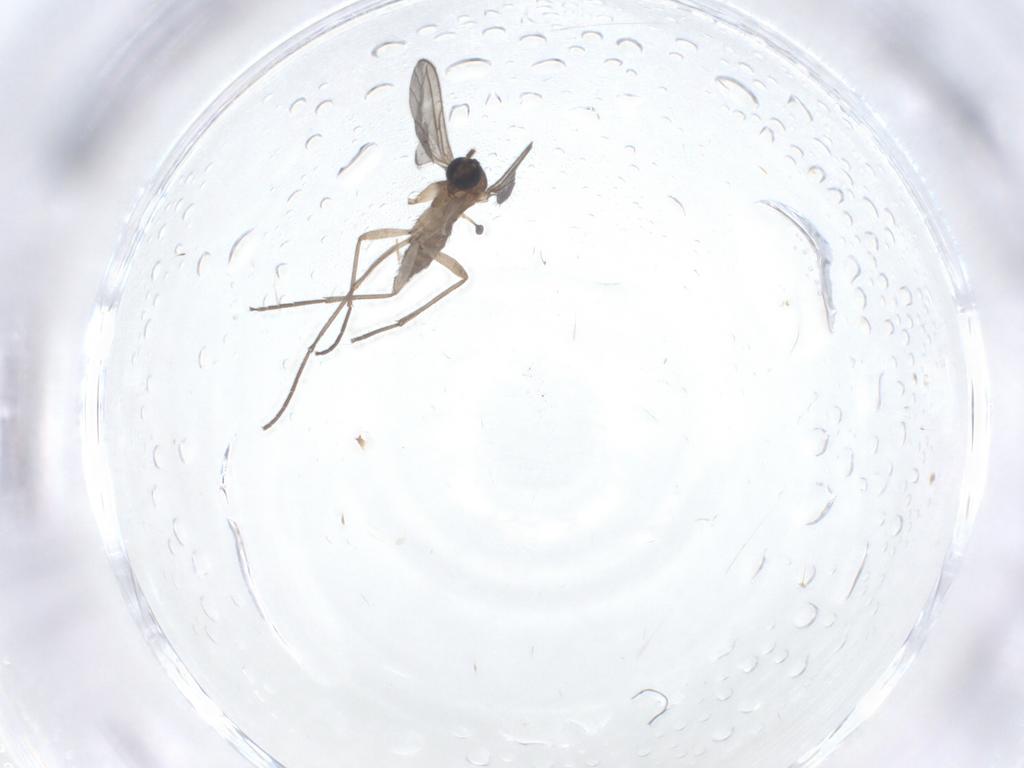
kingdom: Animalia
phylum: Arthropoda
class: Insecta
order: Diptera
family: Sciaridae
